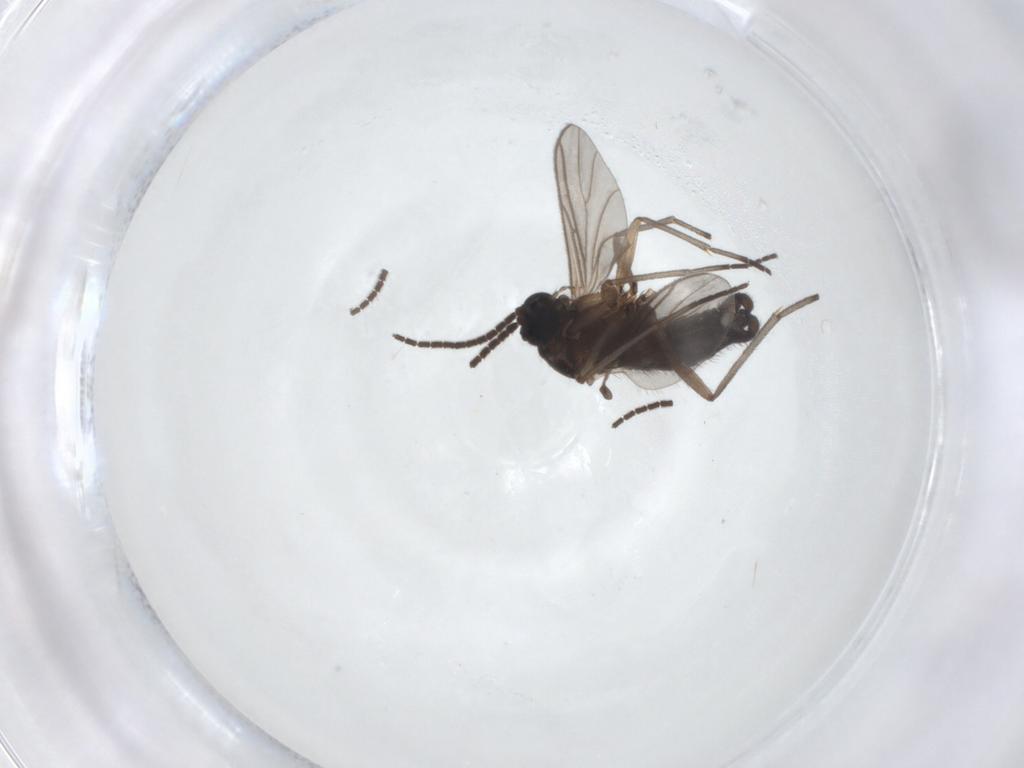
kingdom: Animalia
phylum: Arthropoda
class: Insecta
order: Diptera
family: Sciaridae
